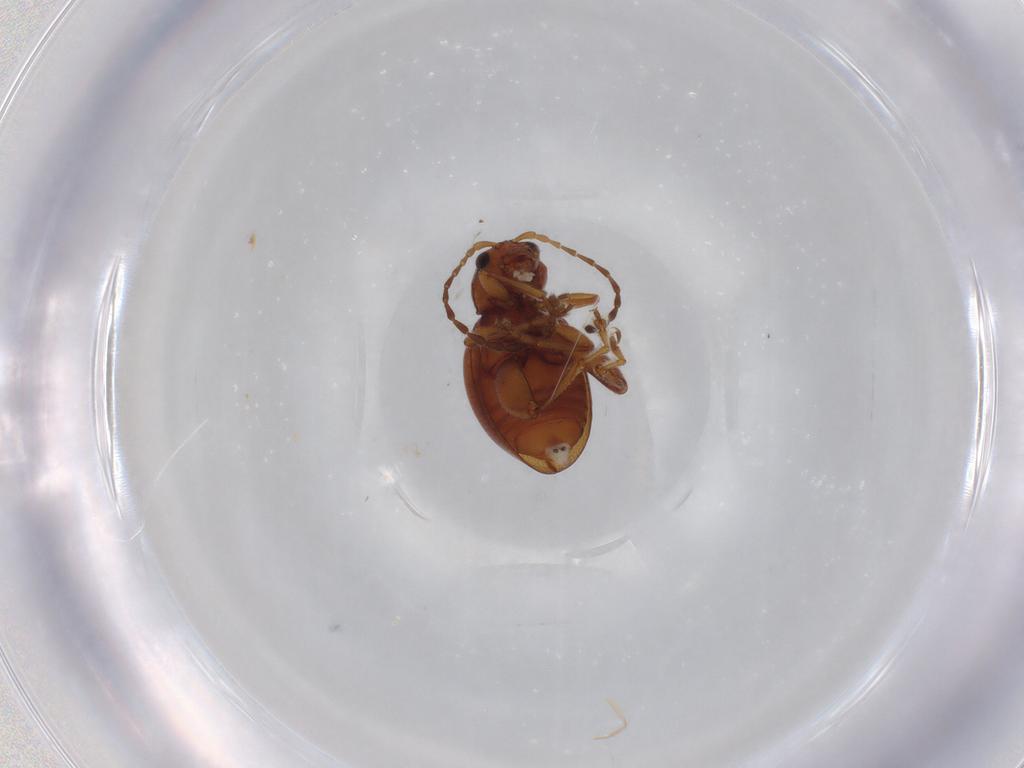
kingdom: Animalia
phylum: Arthropoda
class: Insecta
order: Coleoptera
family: Chrysomelidae
